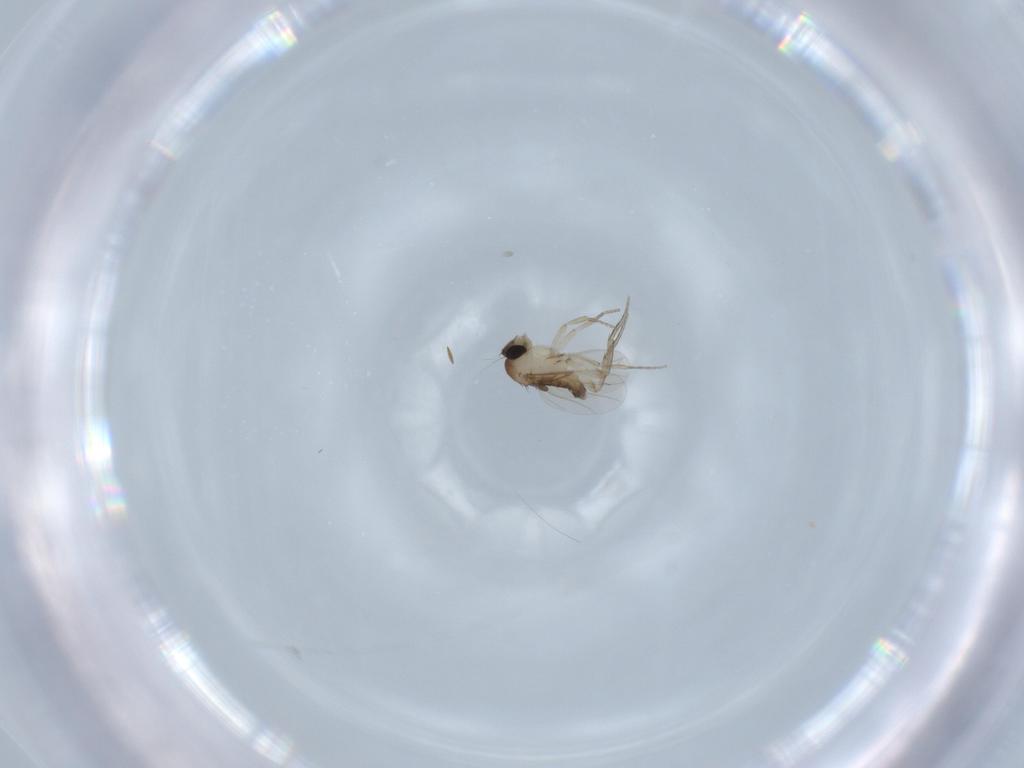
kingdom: Animalia
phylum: Arthropoda
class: Insecta
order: Diptera
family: Phoridae
